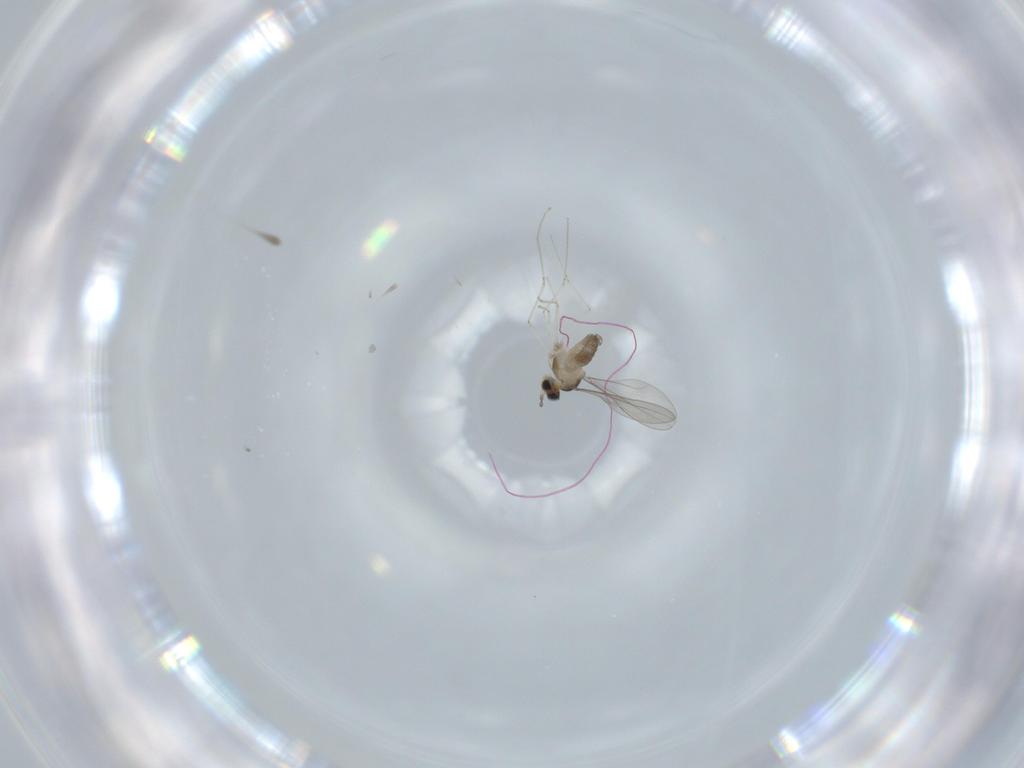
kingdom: Animalia
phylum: Arthropoda
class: Insecta
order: Diptera
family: Cecidomyiidae
